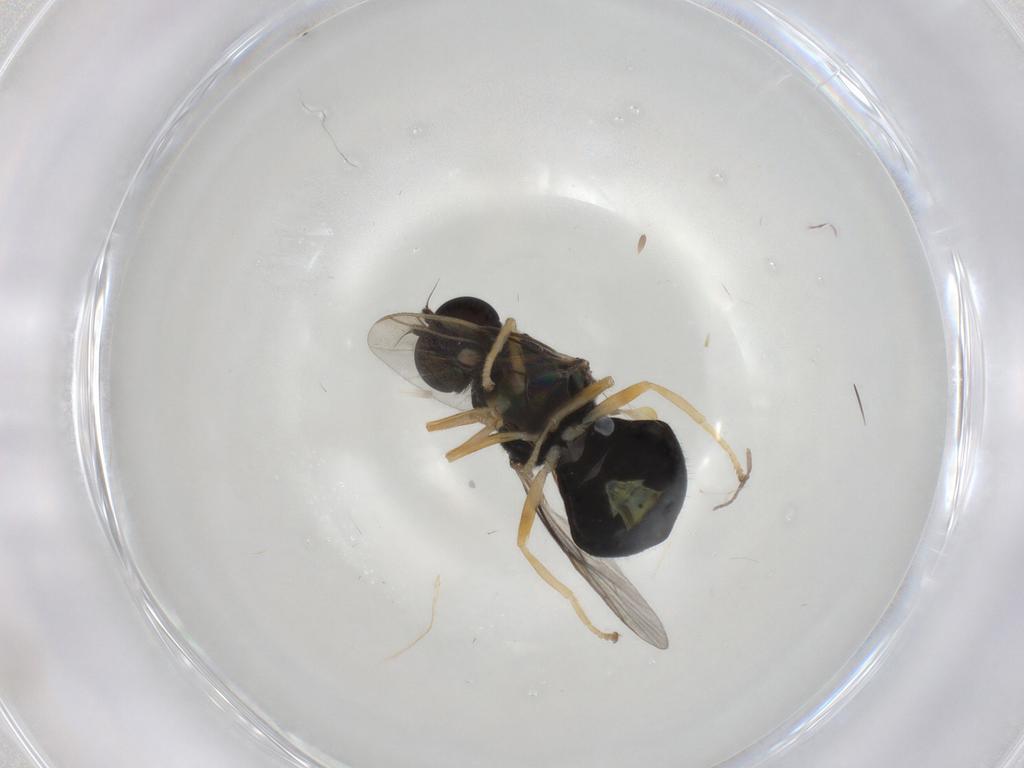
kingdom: Animalia
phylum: Arthropoda
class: Insecta
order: Diptera
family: Stratiomyidae
